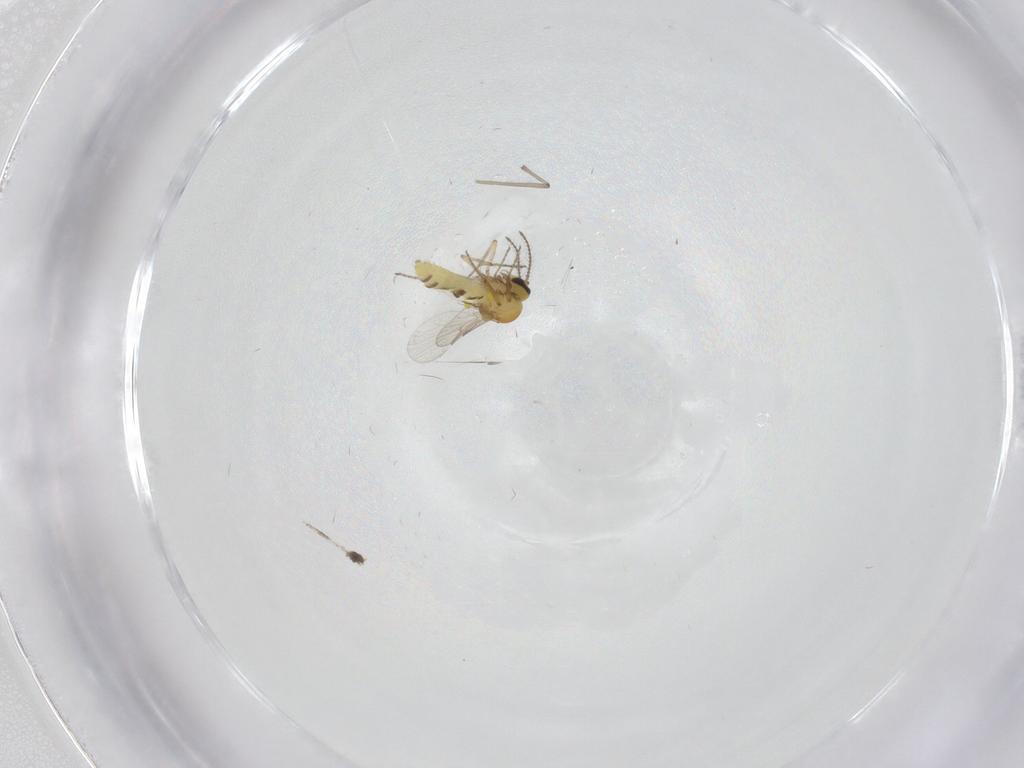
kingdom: Animalia
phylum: Arthropoda
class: Insecta
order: Diptera
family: Ceratopogonidae
